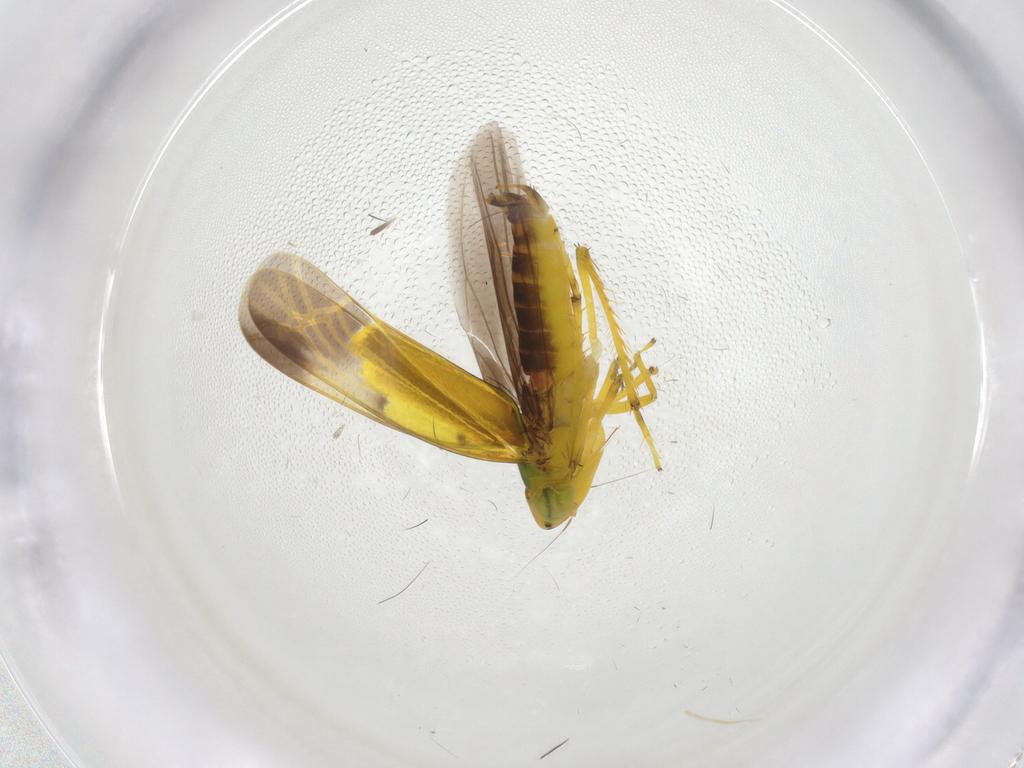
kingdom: Animalia
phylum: Arthropoda
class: Insecta
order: Hemiptera
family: Cicadellidae
